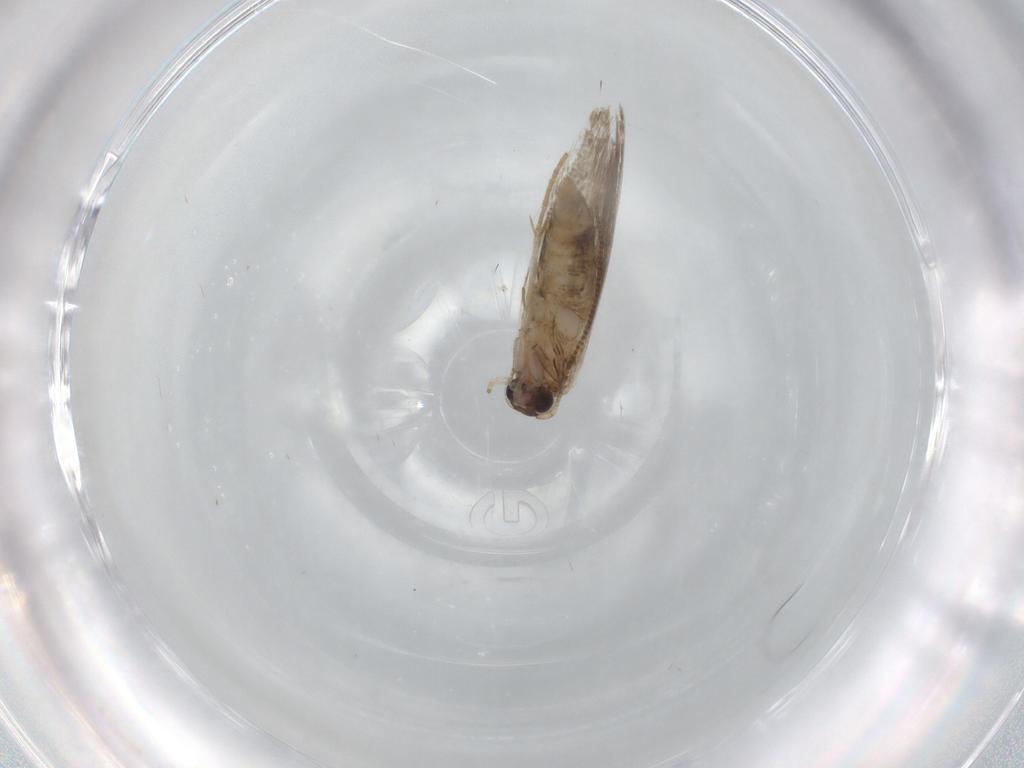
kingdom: Animalia
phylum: Arthropoda
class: Insecta
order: Lepidoptera
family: Tineidae
